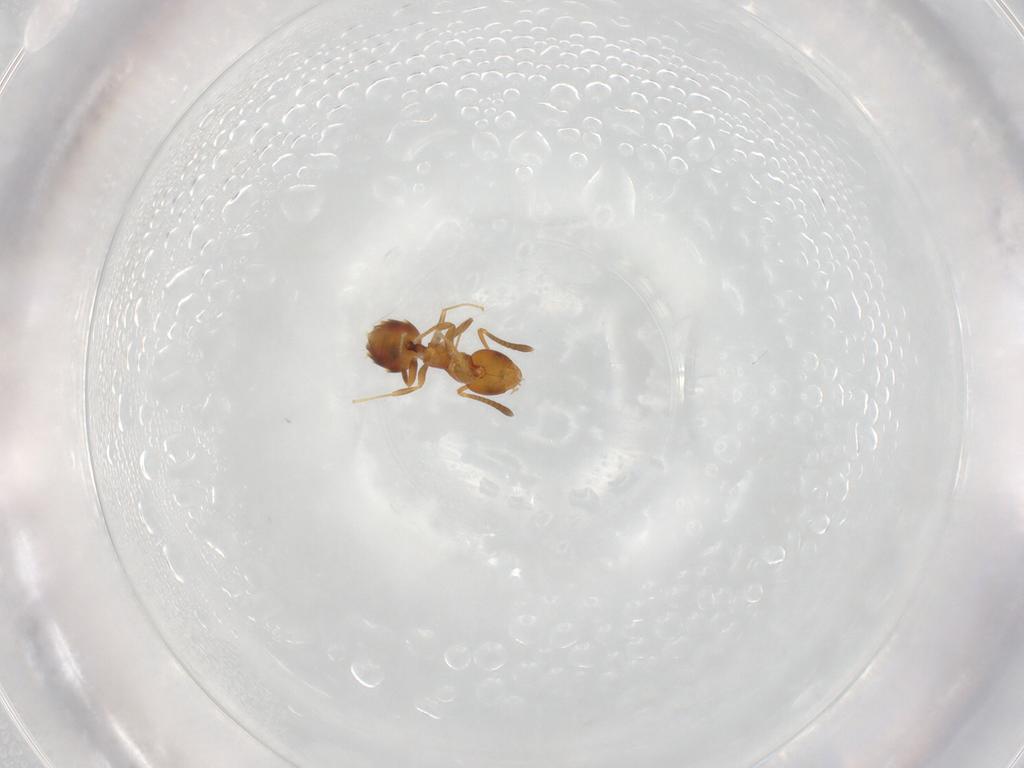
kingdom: Animalia
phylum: Arthropoda
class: Insecta
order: Hymenoptera
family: Formicidae
